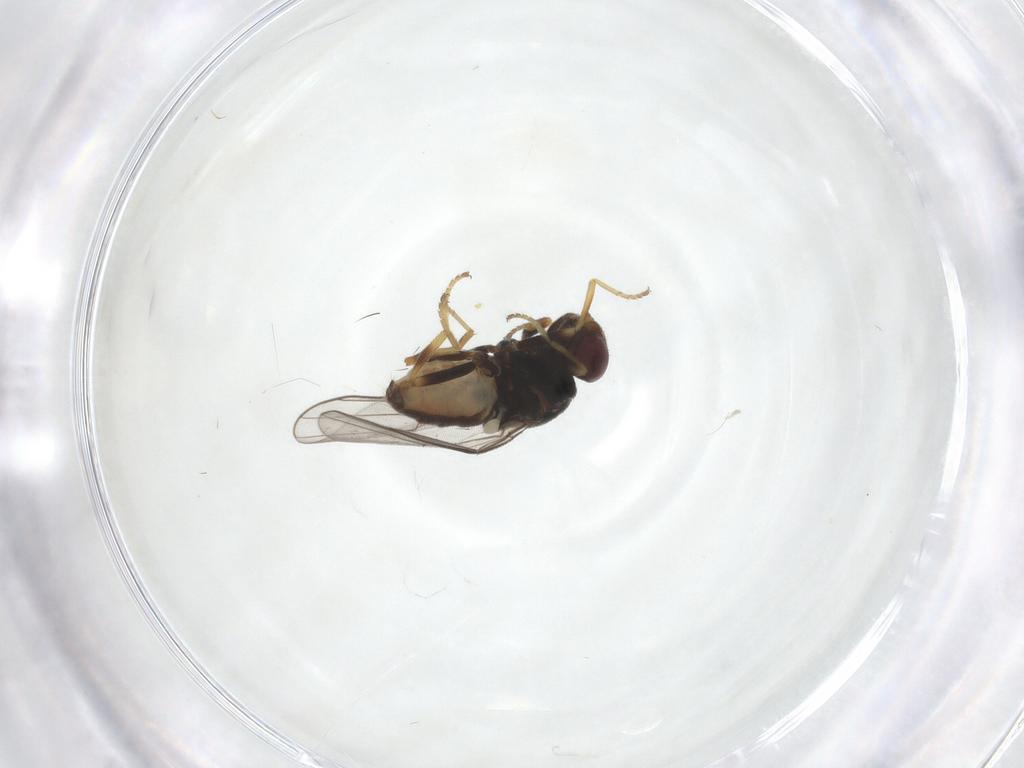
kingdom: Animalia
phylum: Arthropoda
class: Insecta
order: Diptera
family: Chloropidae
